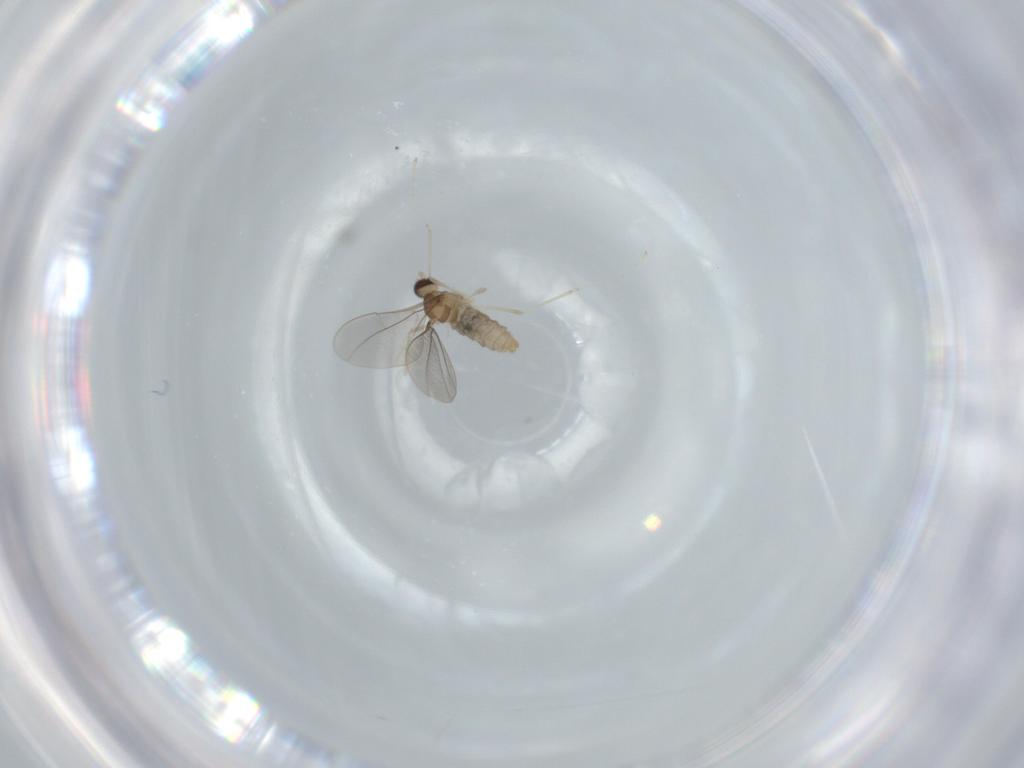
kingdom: Animalia
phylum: Arthropoda
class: Insecta
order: Diptera
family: Cecidomyiidae
